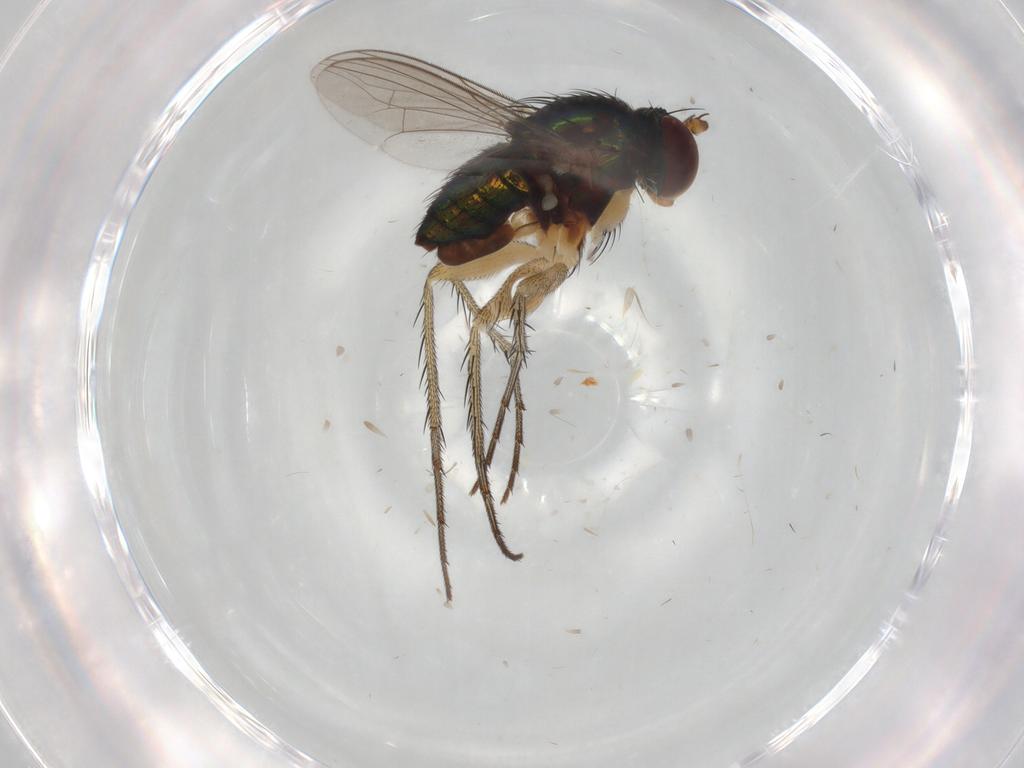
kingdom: Animalia
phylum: Arthropoda
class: Insecta
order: Diptera
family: Dolichopodidae
